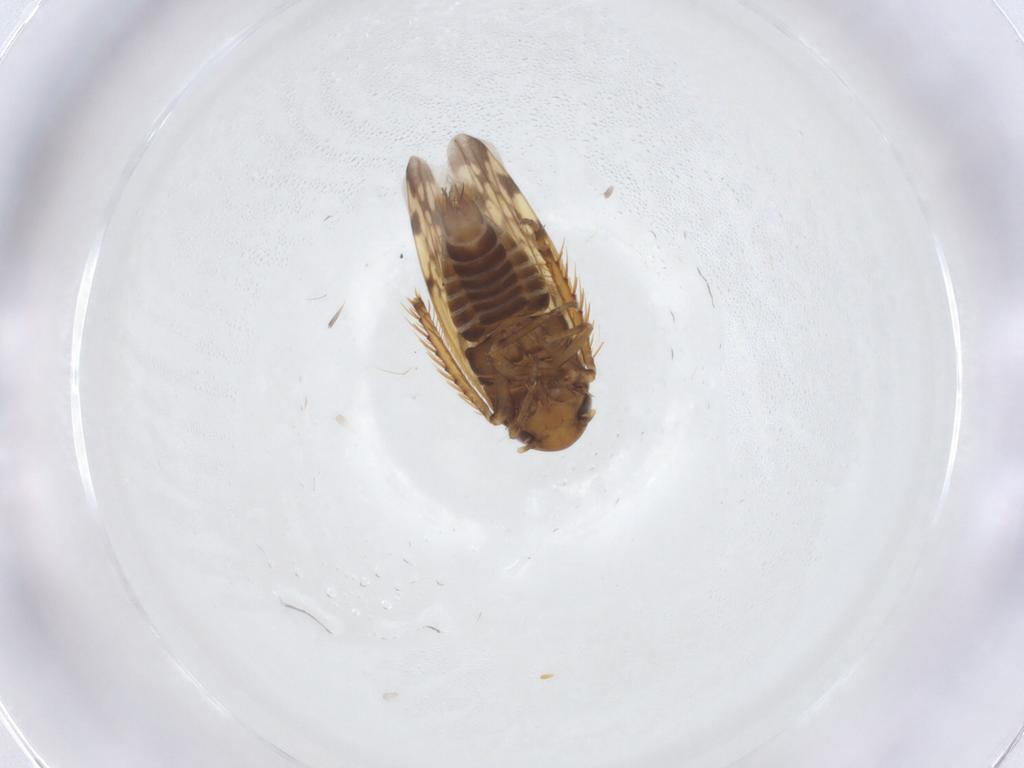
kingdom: Animalia
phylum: Arthropoda
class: Insecta
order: Hemiptera
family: Cicadellidae
